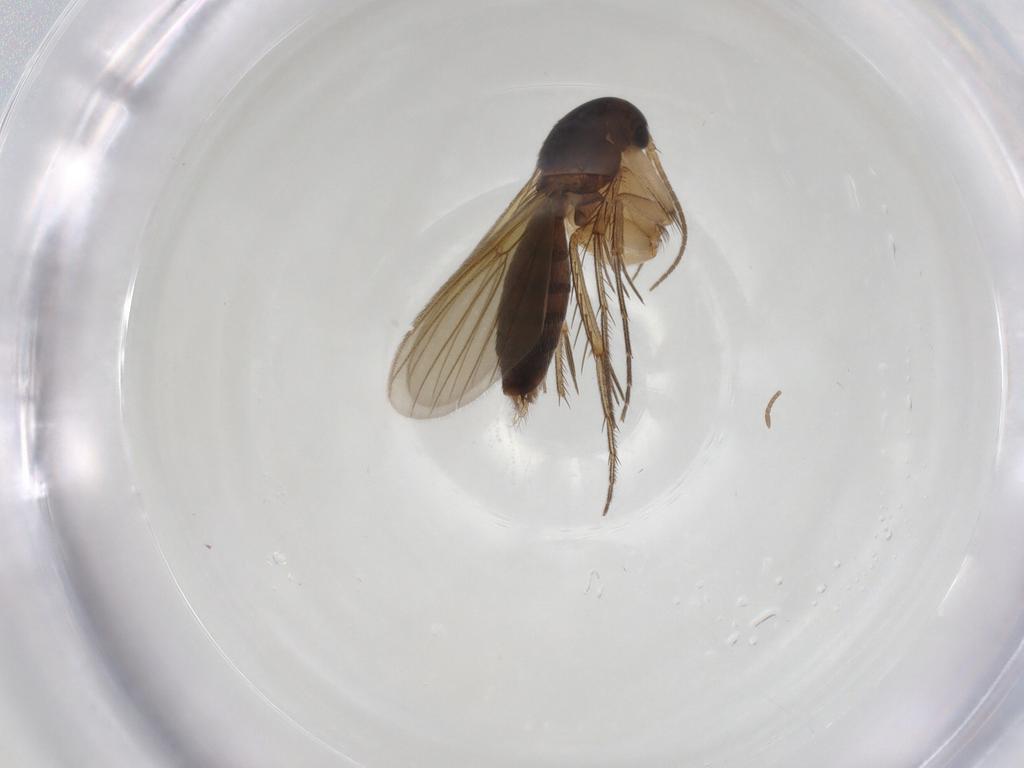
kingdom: Animalia
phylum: Arthropoda
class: Insecta
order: Diptera
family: Mycetophilidae
